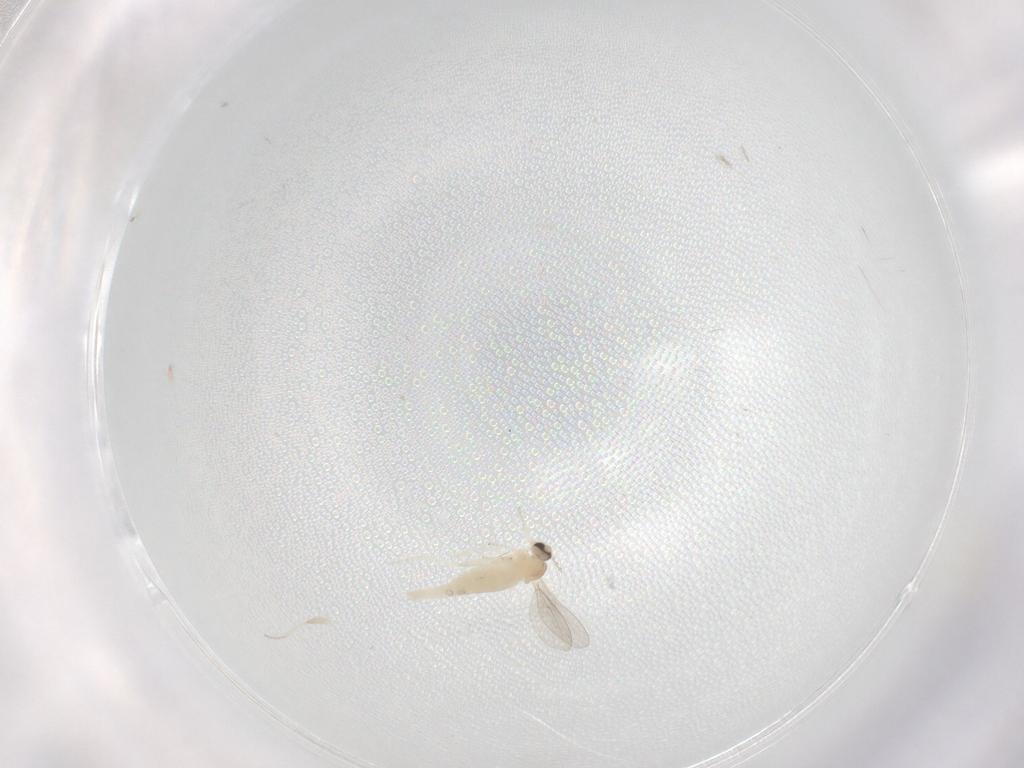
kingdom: Animalia
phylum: Arthropoda
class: Insecta
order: Diptera
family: Cecidomyiidae
